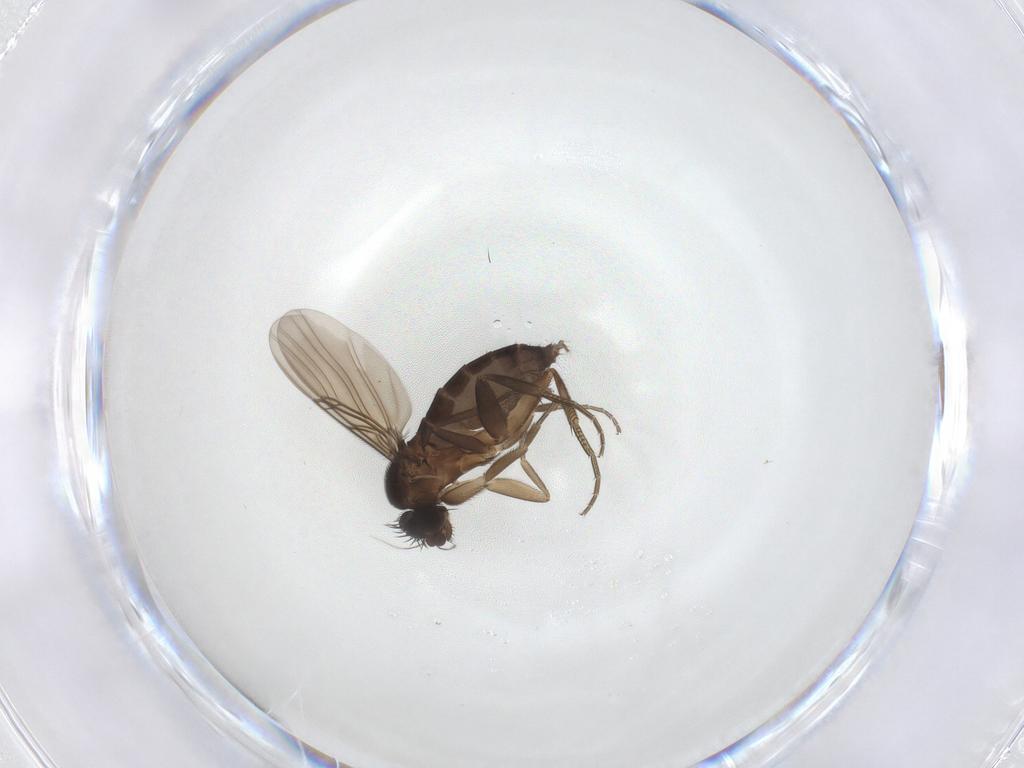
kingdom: Animalia
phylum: Arthropoda
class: Insecta
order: Diptera
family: Phoridae
